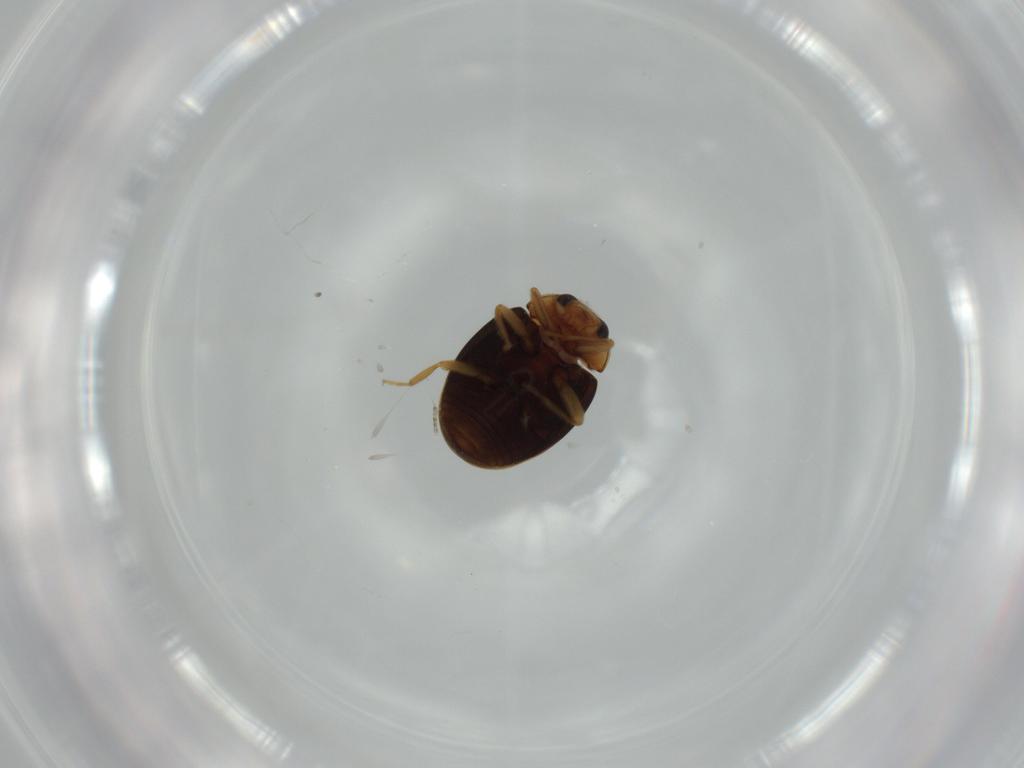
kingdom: Animalia
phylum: Arthropoda
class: Insecta
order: Coleoptera
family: Coccinellidae
